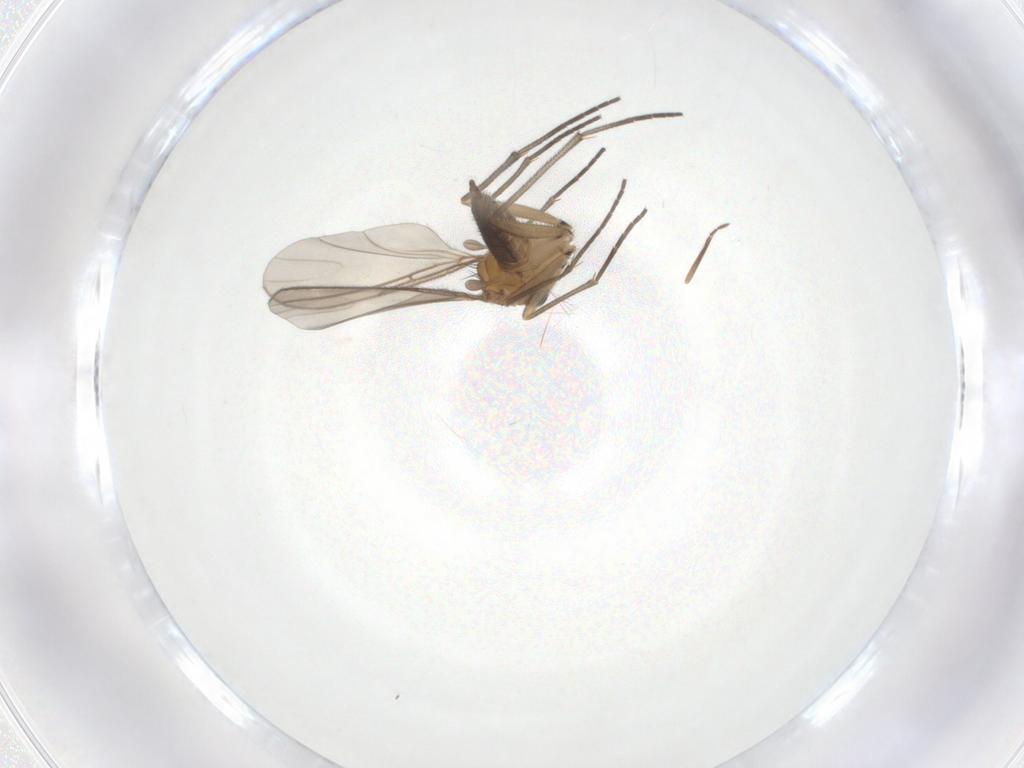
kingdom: Animalia
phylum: Arthropoda
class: Insecta
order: Diptera
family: Sciaridae
